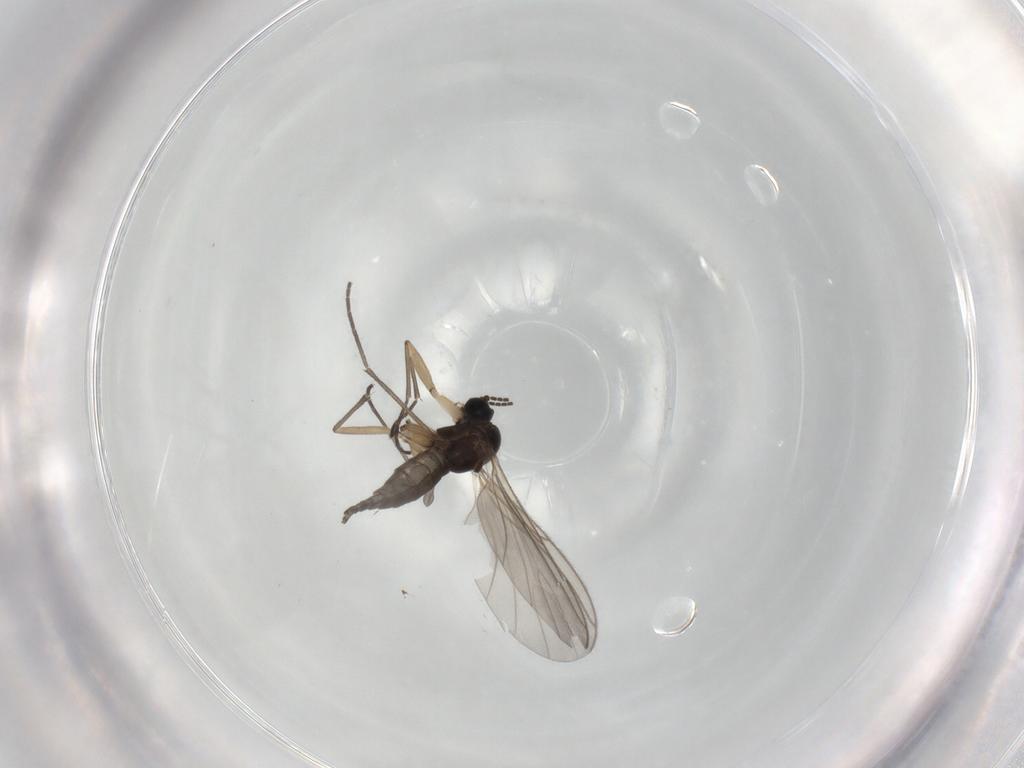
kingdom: Animalia
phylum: Arthropoda
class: Insecta
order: Diptera
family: Sciaridae
